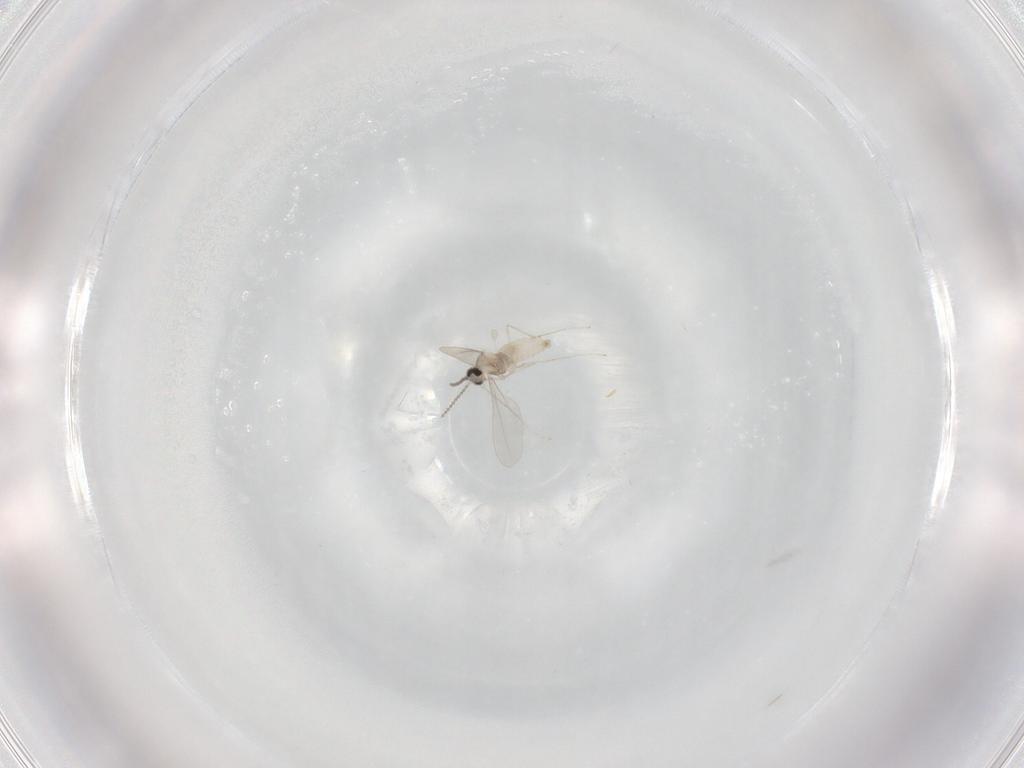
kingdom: Animalia
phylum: Arthropoda
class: Insecta
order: Diptera
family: Cecidomyiidae
